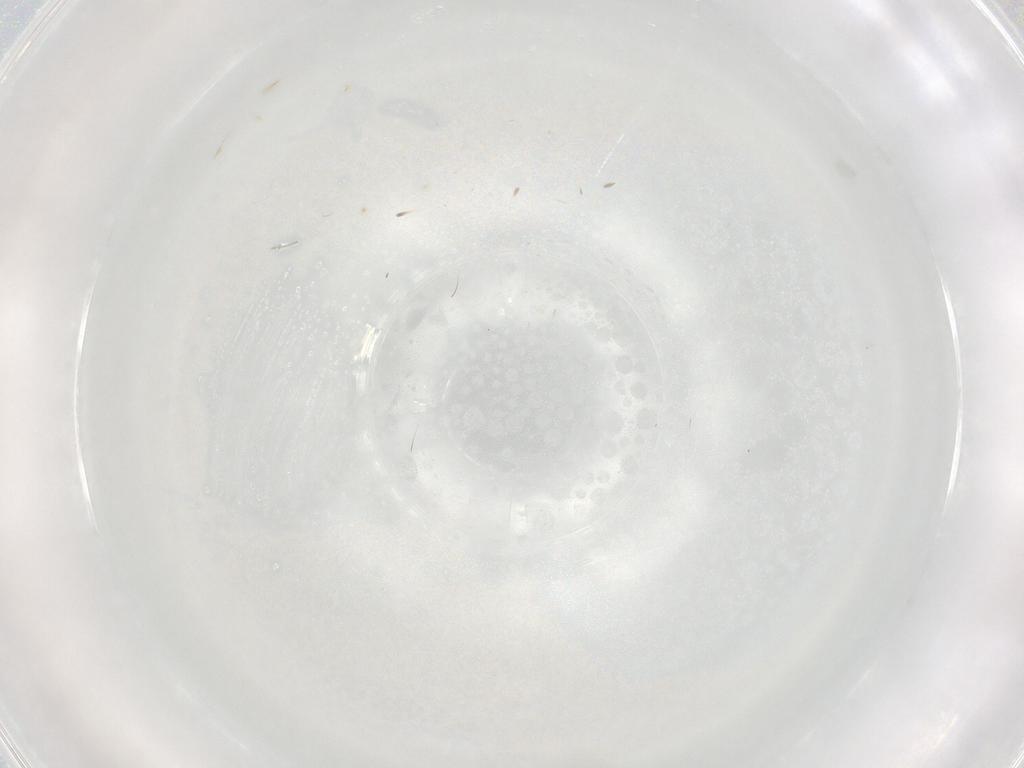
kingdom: Animalia
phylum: Arthropoda
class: Insecta
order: Hymenoptera
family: Mymaridae
